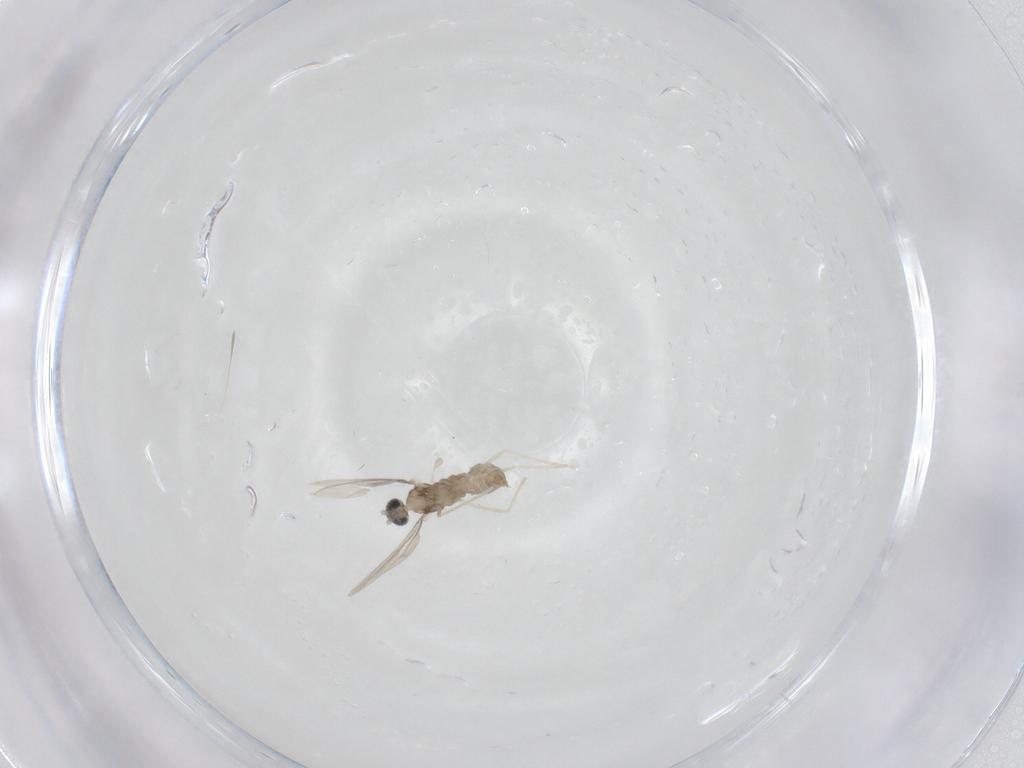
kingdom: Animalia
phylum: Arthropoda
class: Insecta
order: Diptera
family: Cecidomyiidae
